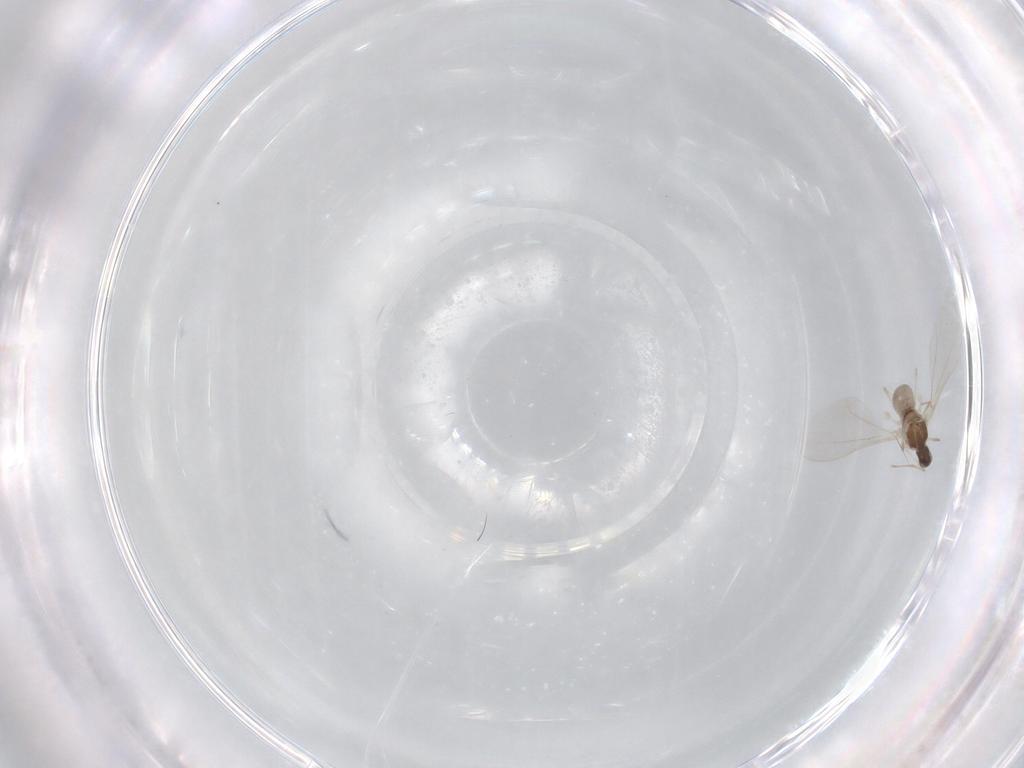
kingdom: Animalia
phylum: Arthropoda
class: Insecta
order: Diptera
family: Cecidomyiidae
